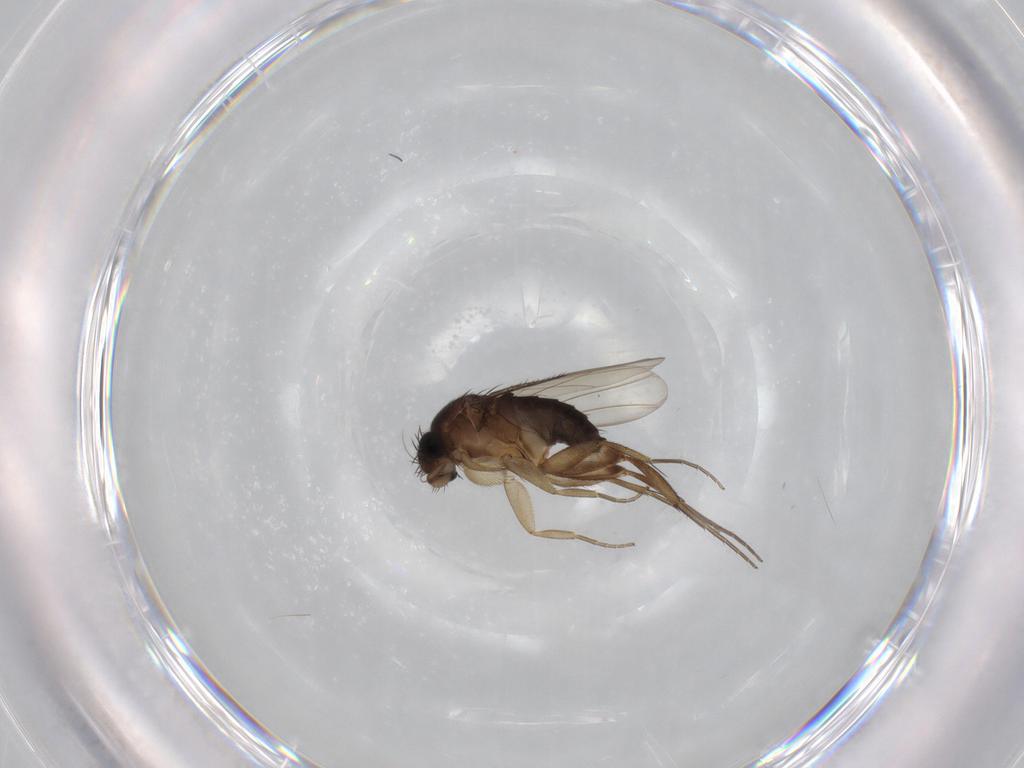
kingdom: Animalia
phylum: Arthropoda
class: Insecta
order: Diptera
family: Phoridae
